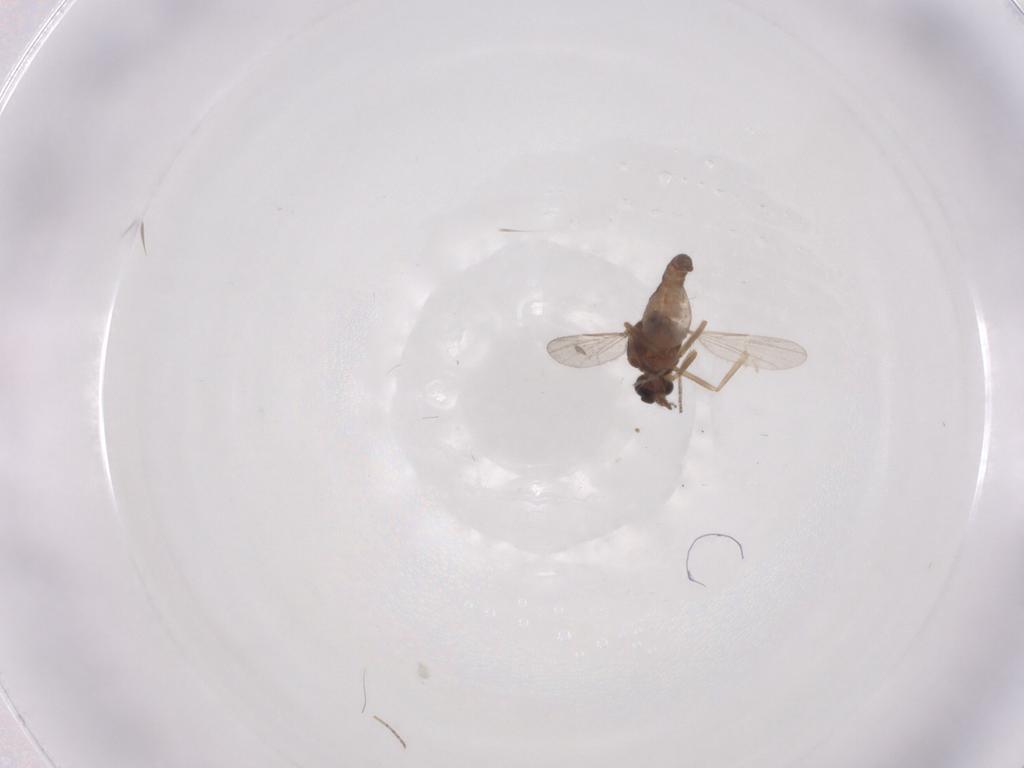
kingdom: Animalia
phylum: Arthropoda
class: Insecta
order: Diptera
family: Ceratopogonidae
